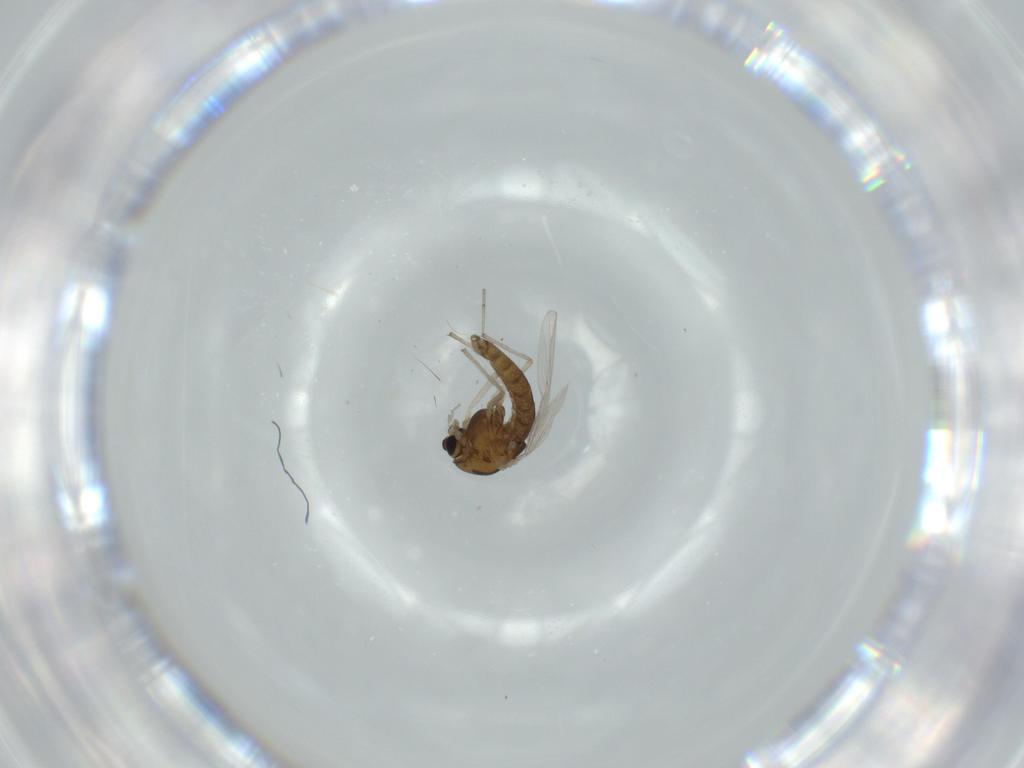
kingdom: Animalia
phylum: Arthropoda
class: Insecta
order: Diptera
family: Chironomidae
